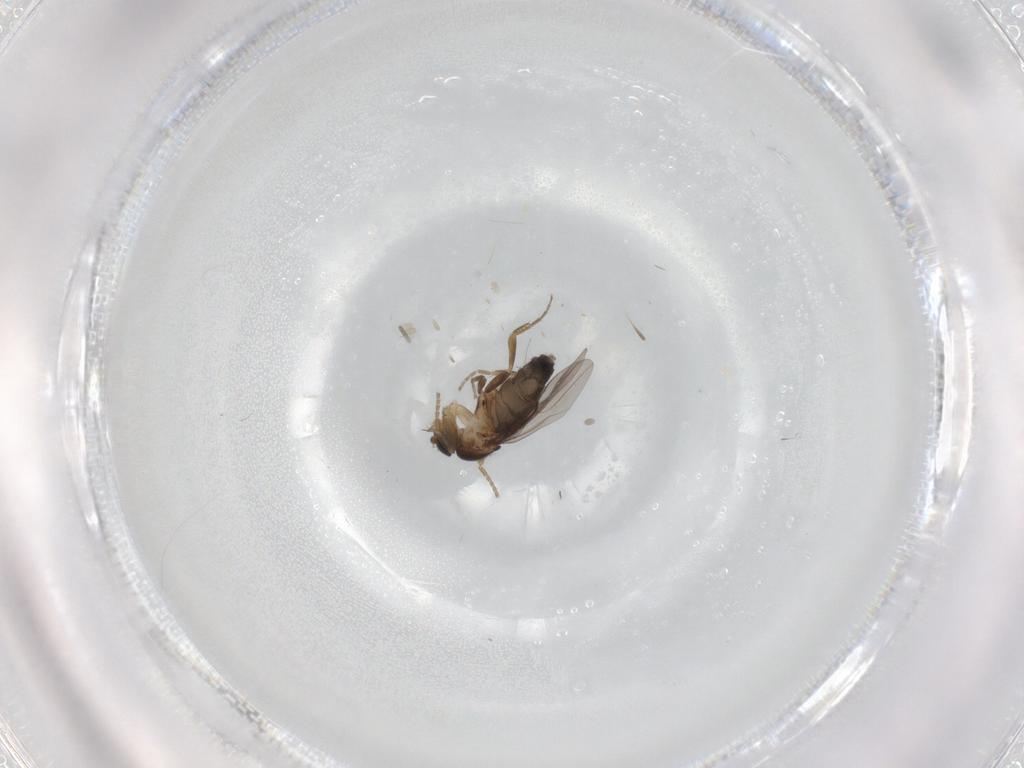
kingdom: Animalia
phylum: Arthropoda
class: Insecta
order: Diptera
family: Phoridae
